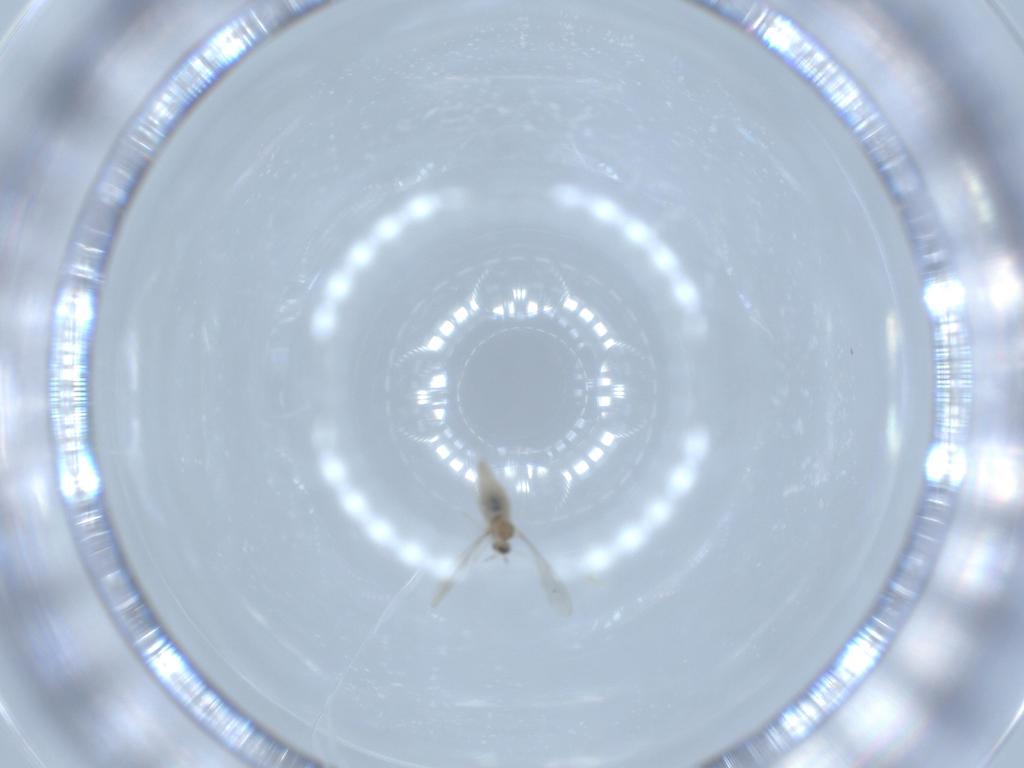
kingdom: Animalia
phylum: Arthropoda
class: Insecta
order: Diptera
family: Cecidomyiidae
